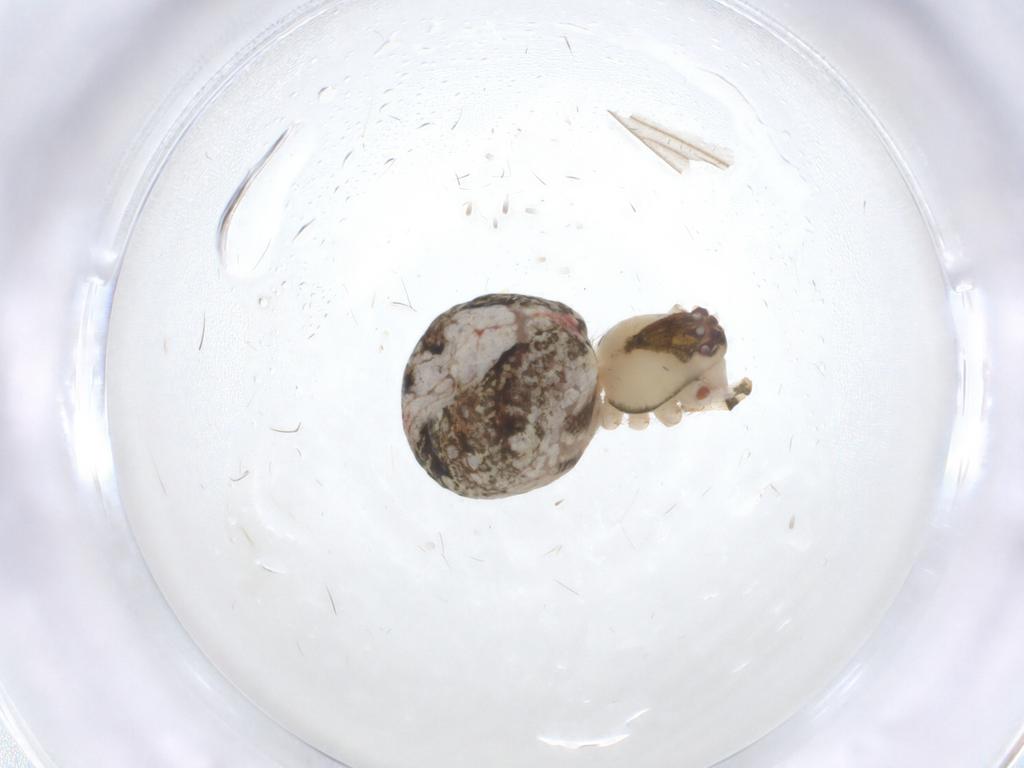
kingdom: Animalia
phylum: Arthropoda
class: Arachnida
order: Araneae
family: Theridiidae
